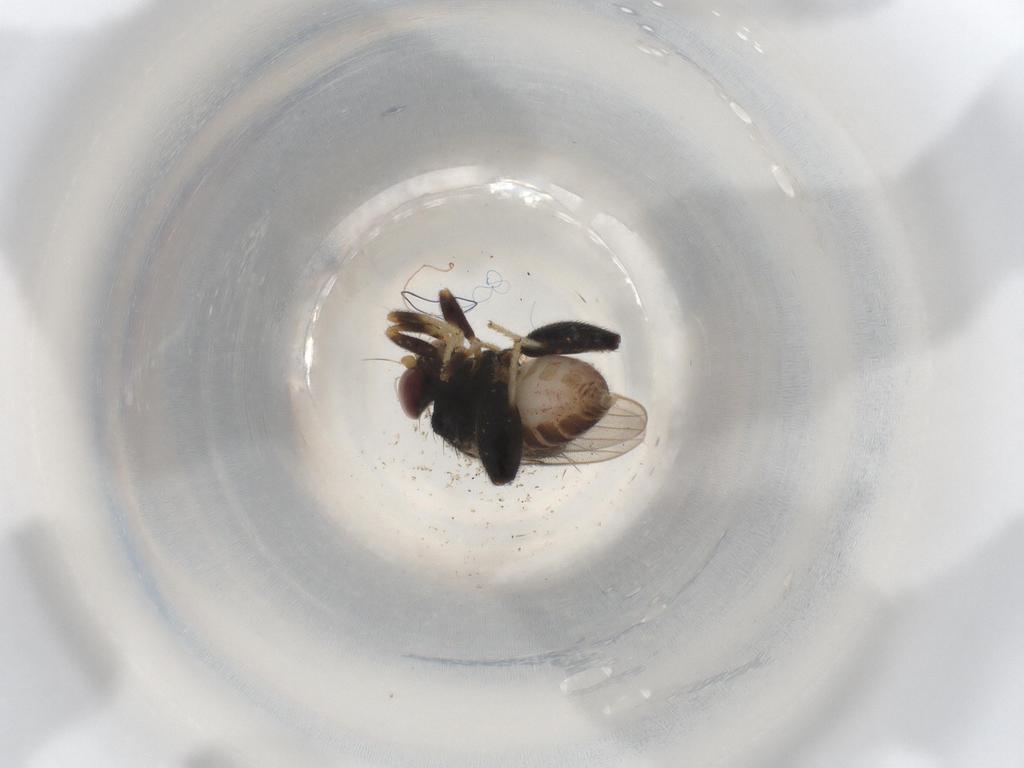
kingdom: Animalia
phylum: Arthropoda
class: Insecta
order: Diptera
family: Chloropidae
